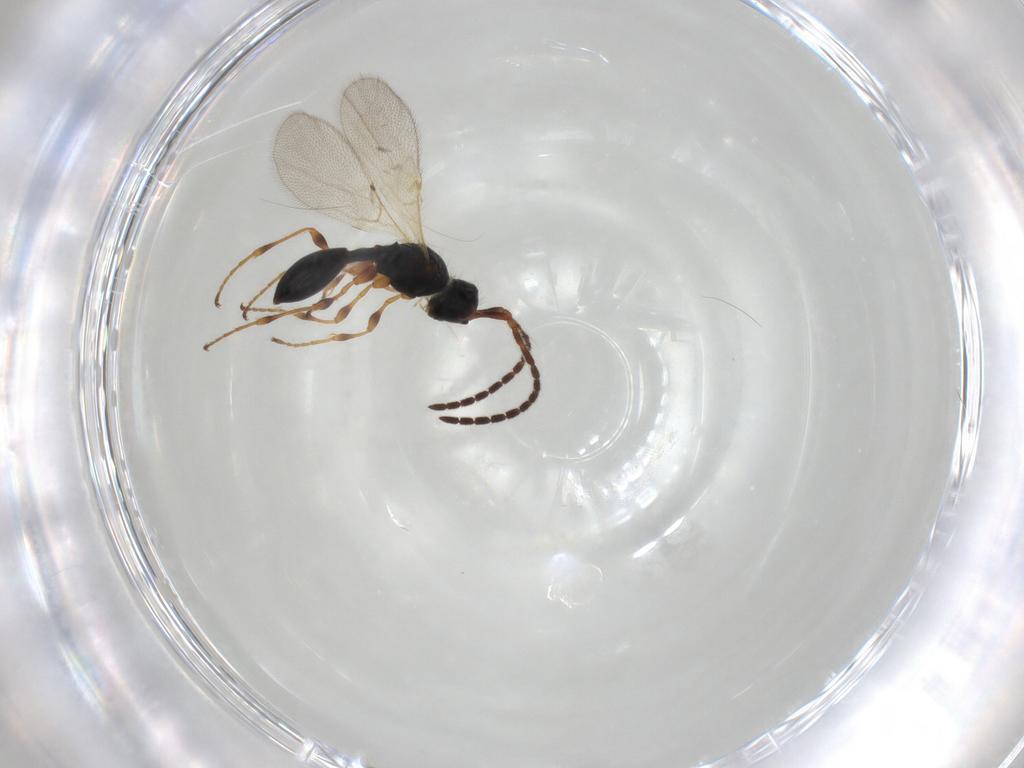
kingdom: Animalia
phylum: Arthropoda
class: Insecta
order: Hymenoptera
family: Diapriidae
